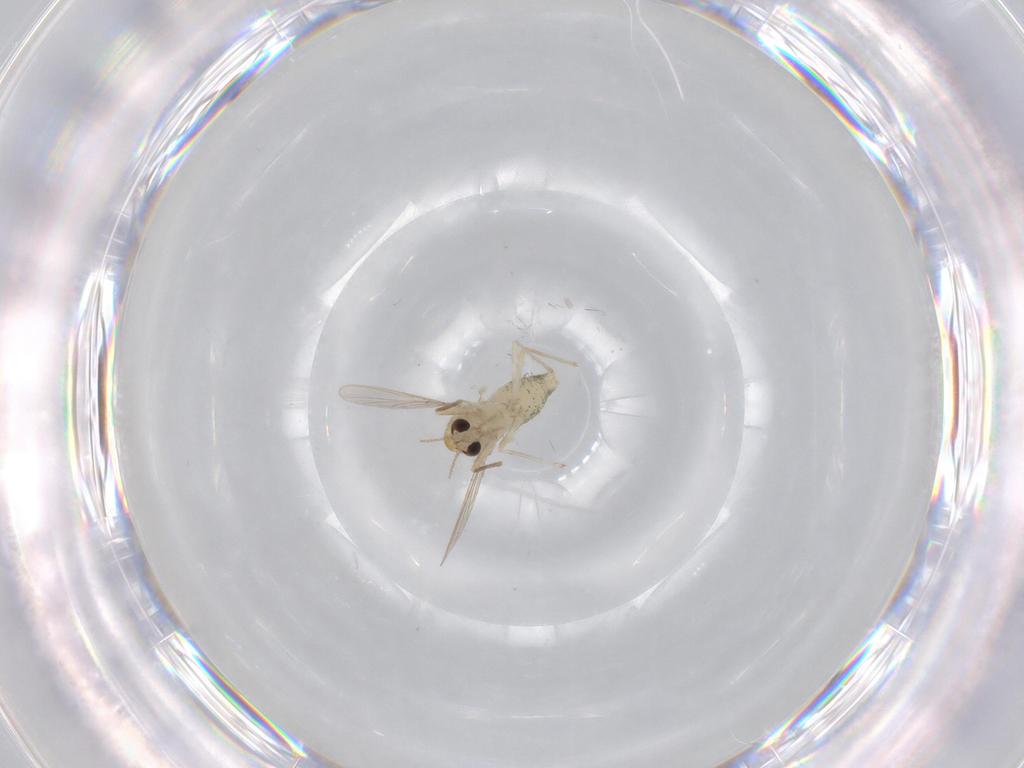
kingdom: Animalia
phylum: Arthropoda
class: Insecta
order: Diptera
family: Chironomidae
